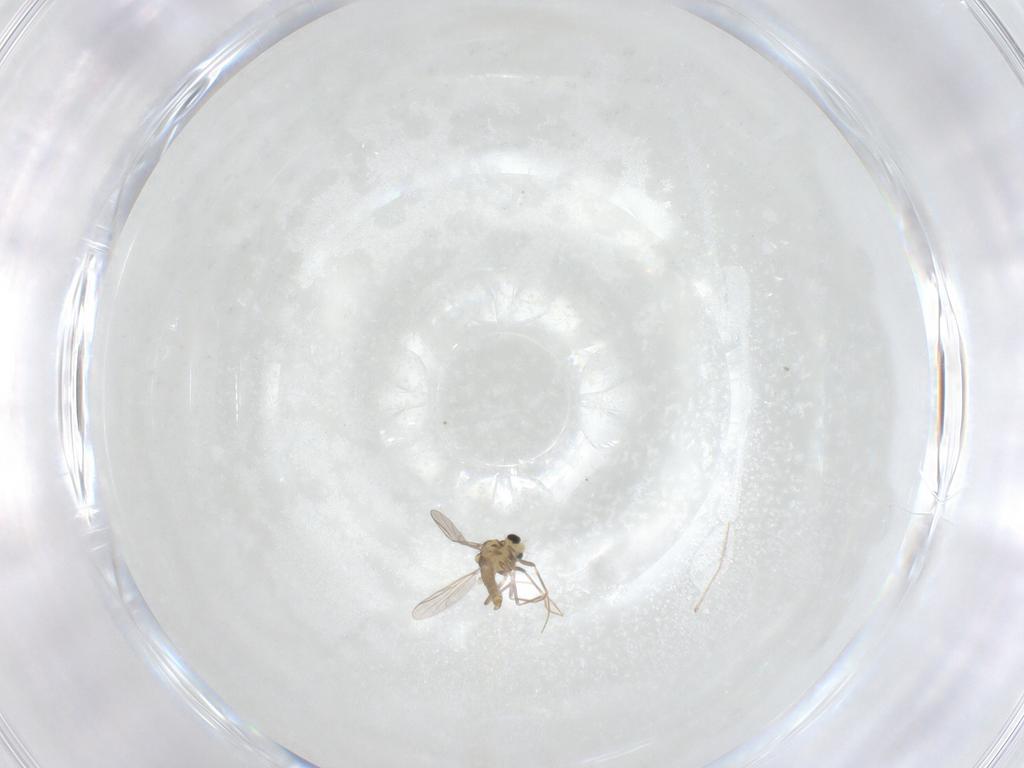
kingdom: Animalia
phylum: Arthropoda
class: Insecta
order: Diptera
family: Chironomidae
